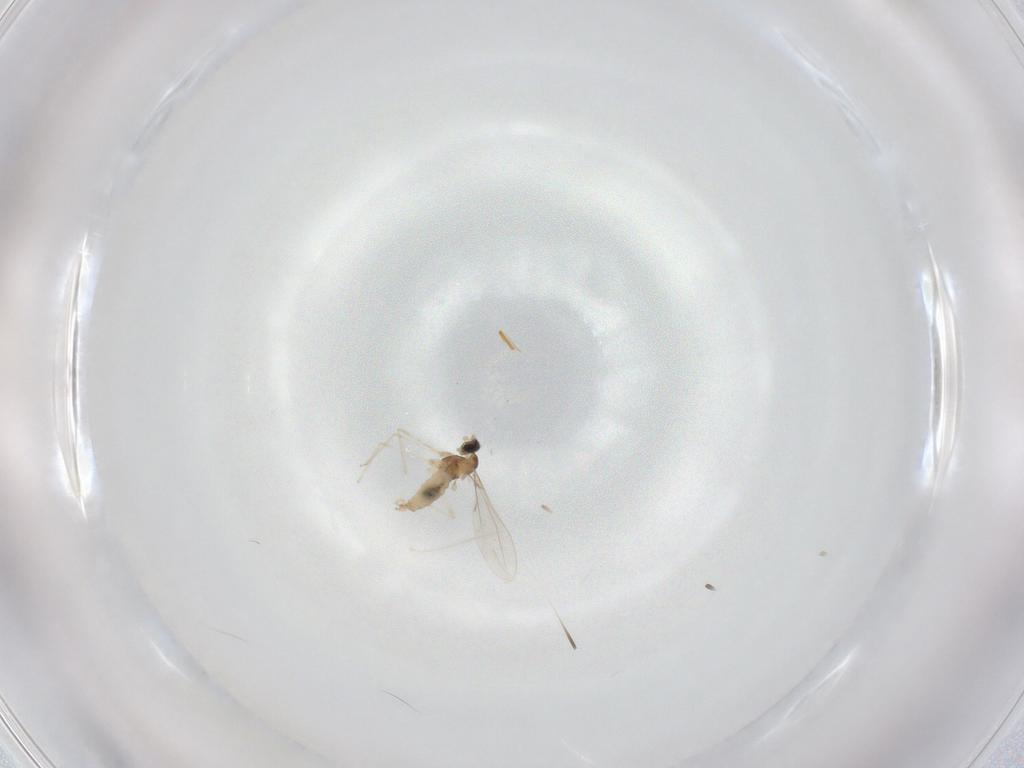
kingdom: Animalia
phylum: Arthropoda
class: Insecta
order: Diptera
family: Cecidomyiidae
